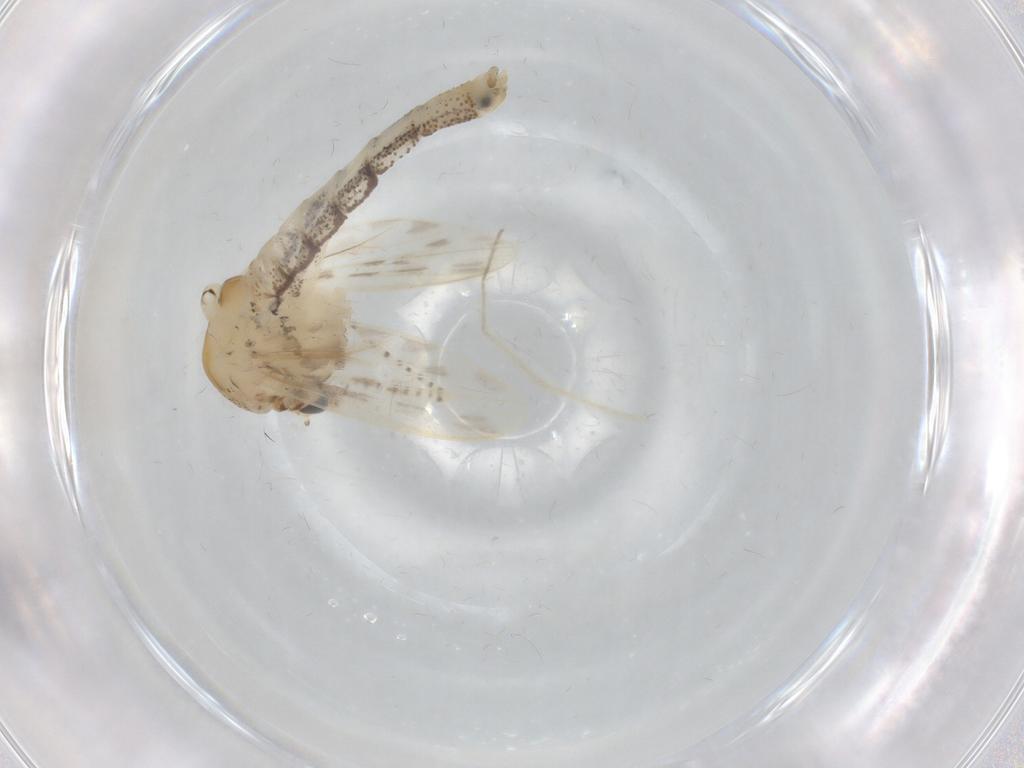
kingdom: Animalia
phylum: Arthropoda
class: Insecta
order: Diptera
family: Chaoboridae
